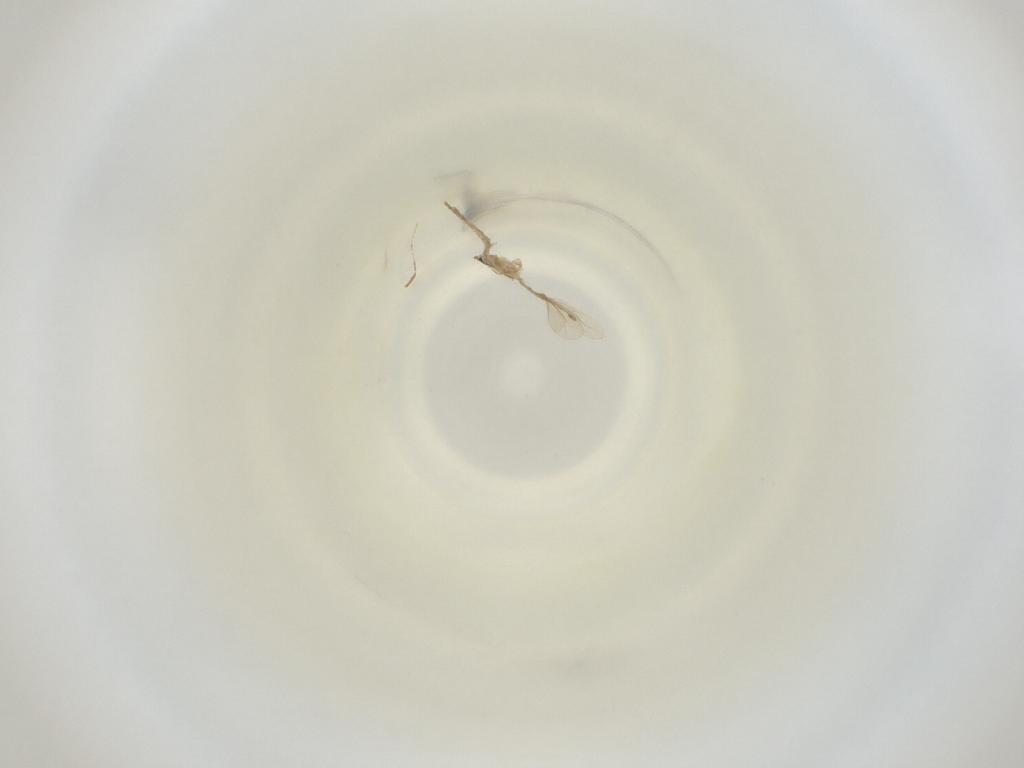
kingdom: Animalia
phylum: Arthropoda
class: Insecta
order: Diptera
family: Cecidomyiidae
